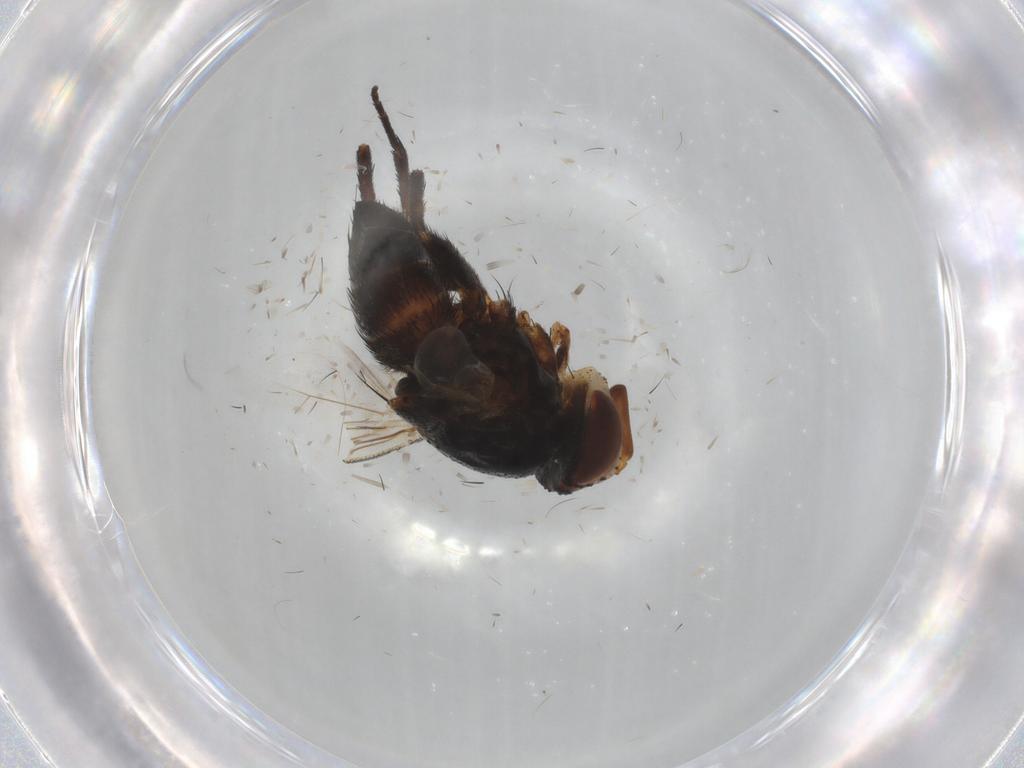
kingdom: Animalia
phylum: Arthropoda
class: Insecta
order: Diptera
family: Glossinidae
